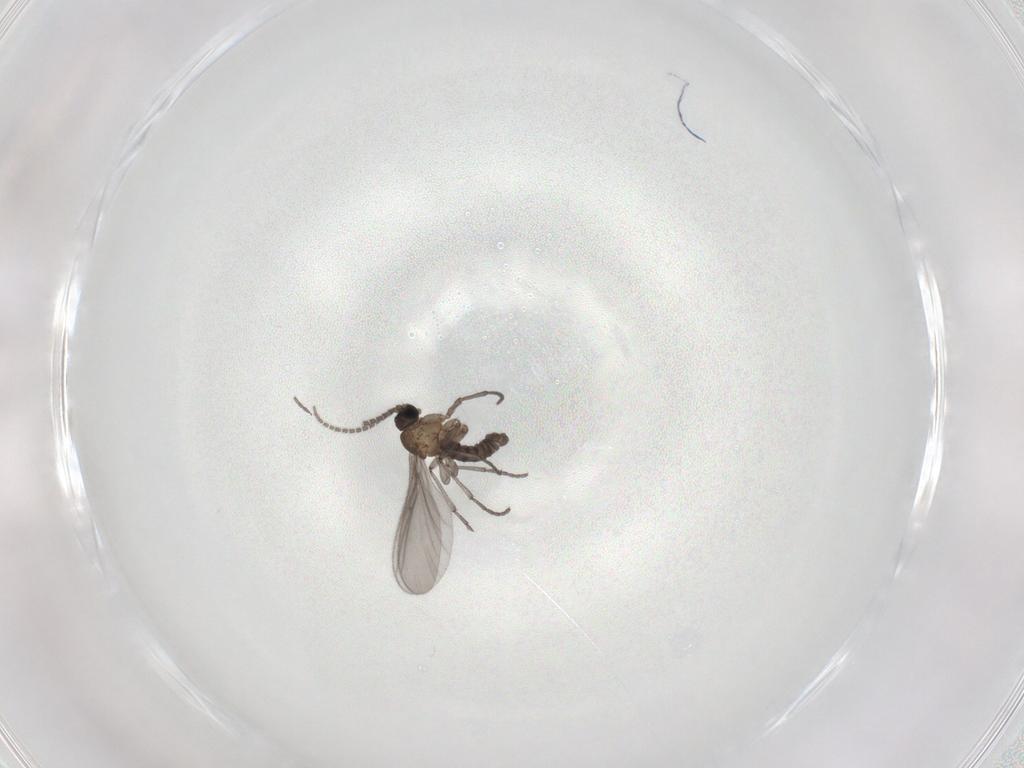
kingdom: Animalia
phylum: Arthropoda
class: Insecta
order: Diptera
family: Sciaridae
